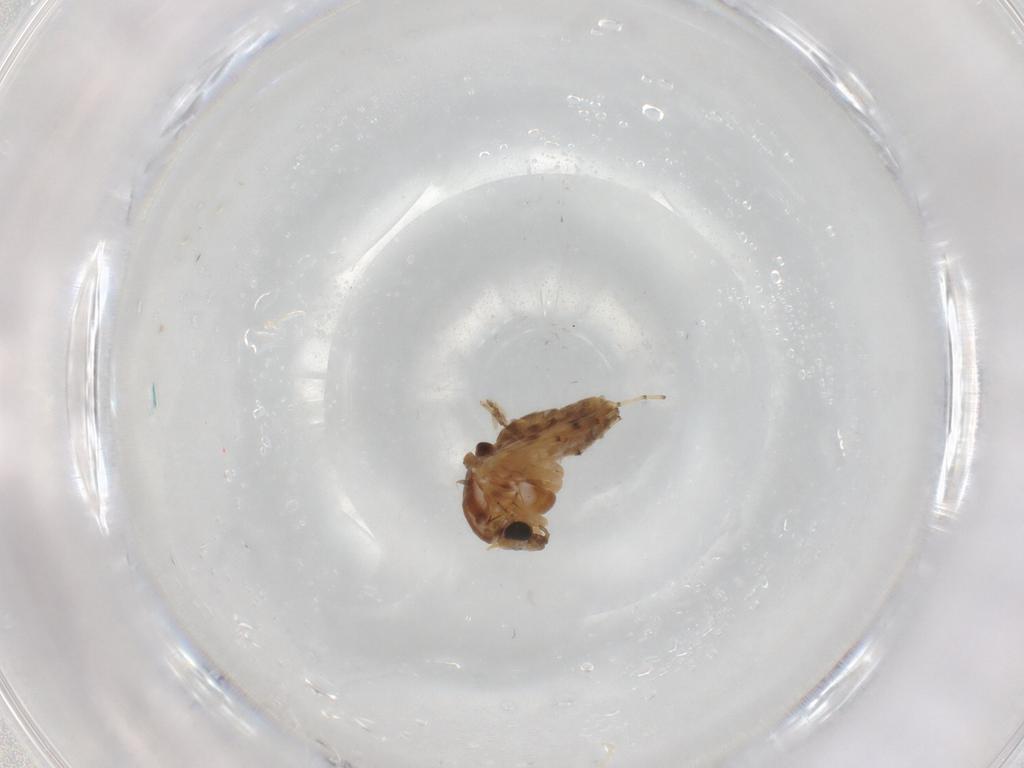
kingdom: Animalia
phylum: Arthropoda
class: Insecta
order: Diptera
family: Chironomidae
